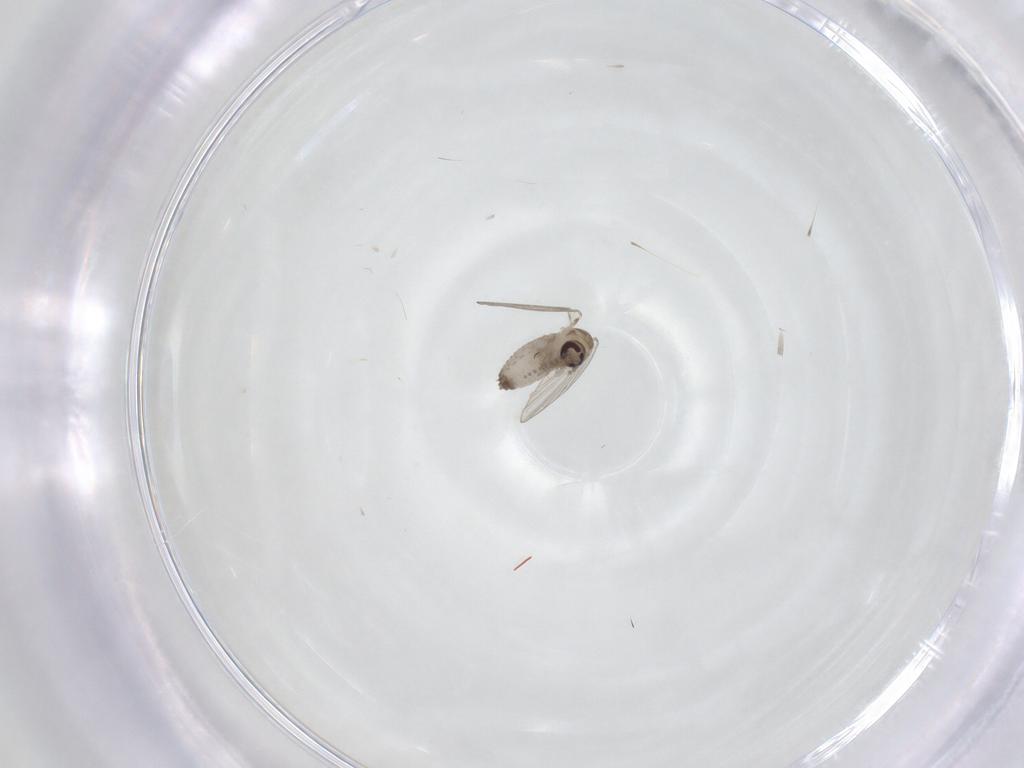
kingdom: Animalia
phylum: Arthropoda
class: Insecta
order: Diptera
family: Psychodidae
